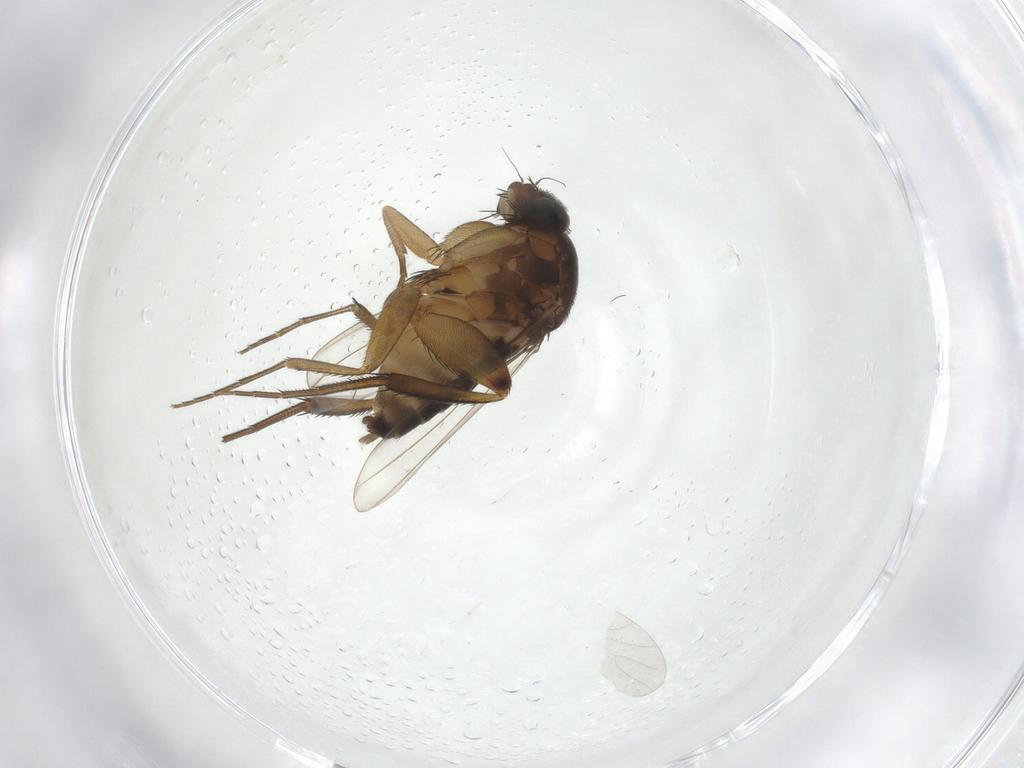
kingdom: Animalia
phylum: Arthropoda
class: Insecta
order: Diptera
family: Phoridae
